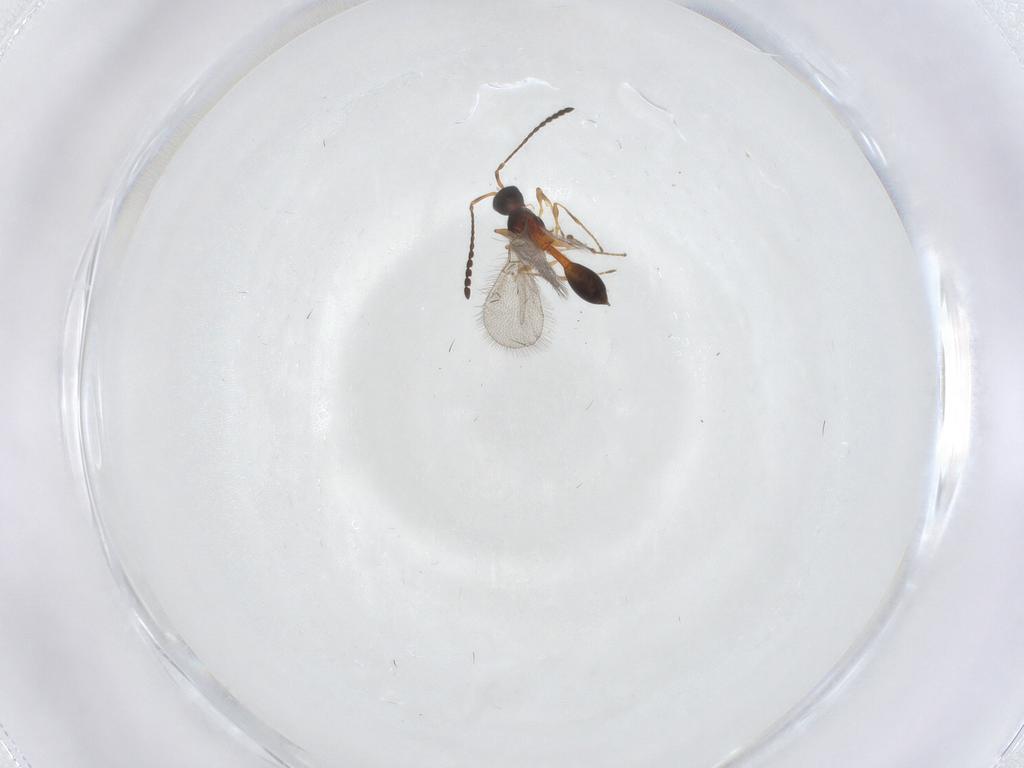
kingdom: Animalia
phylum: Arthropoda
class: Insecta
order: Hymenoptera
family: Diapriidae
